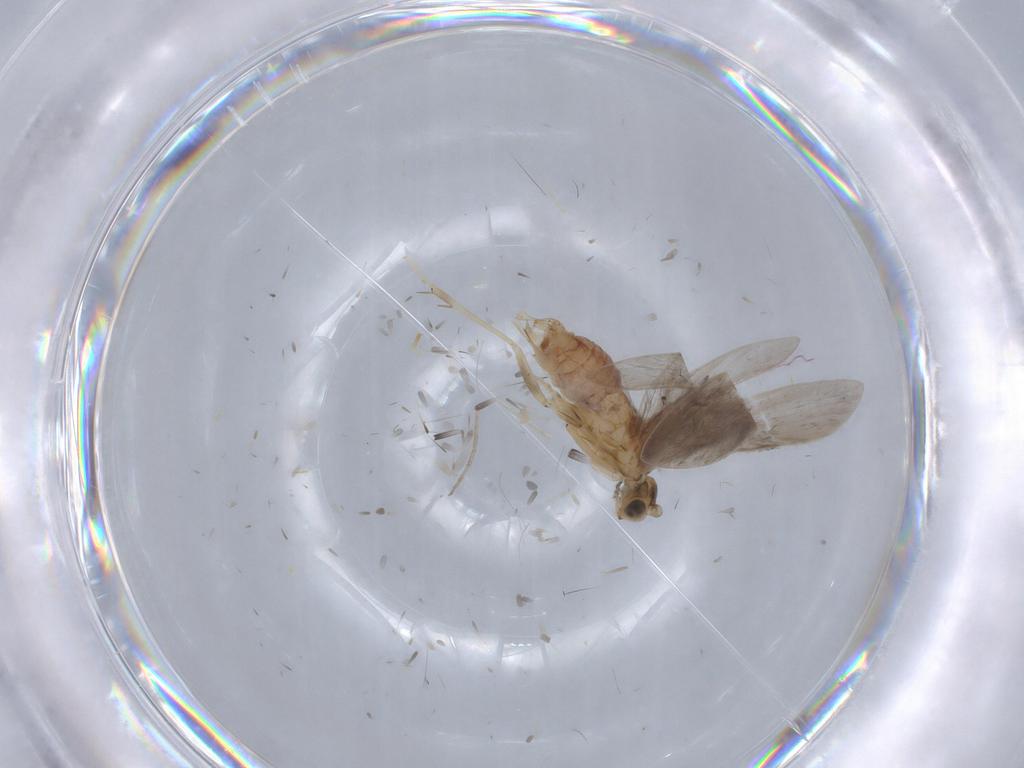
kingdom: Animalia
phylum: Arthropoda
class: Insecta
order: Trichoptera
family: Glossosomatidae
